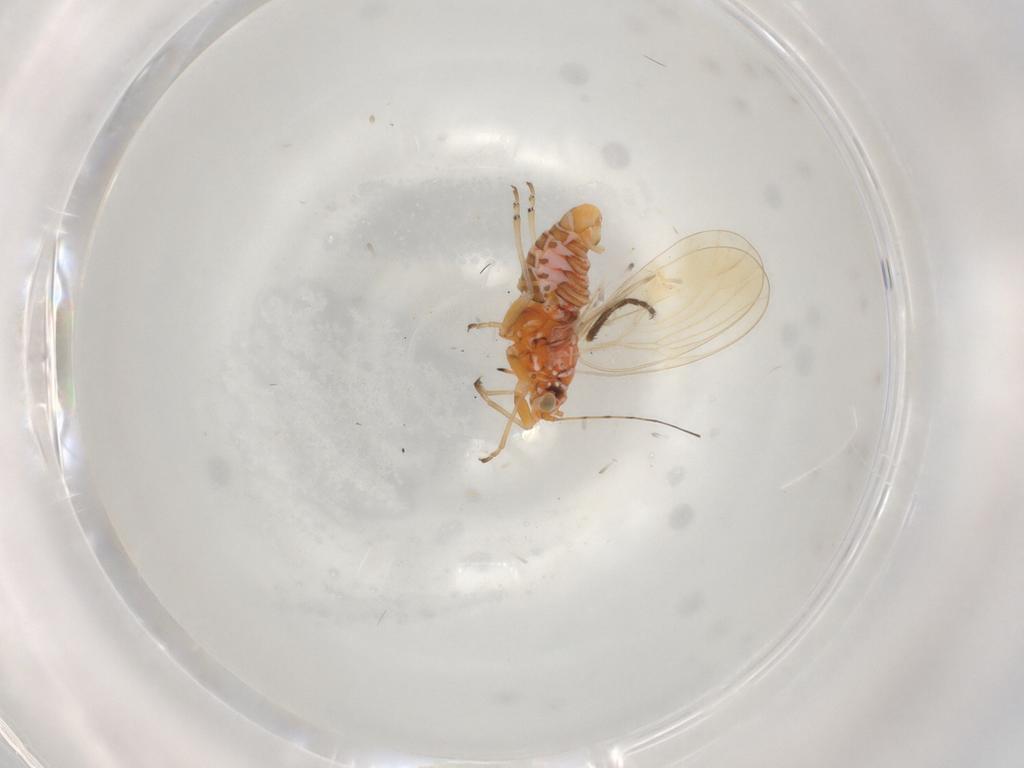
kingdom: Animalia
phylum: Arthropoda
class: Insecta
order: Hemiptera
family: Psyllidae
